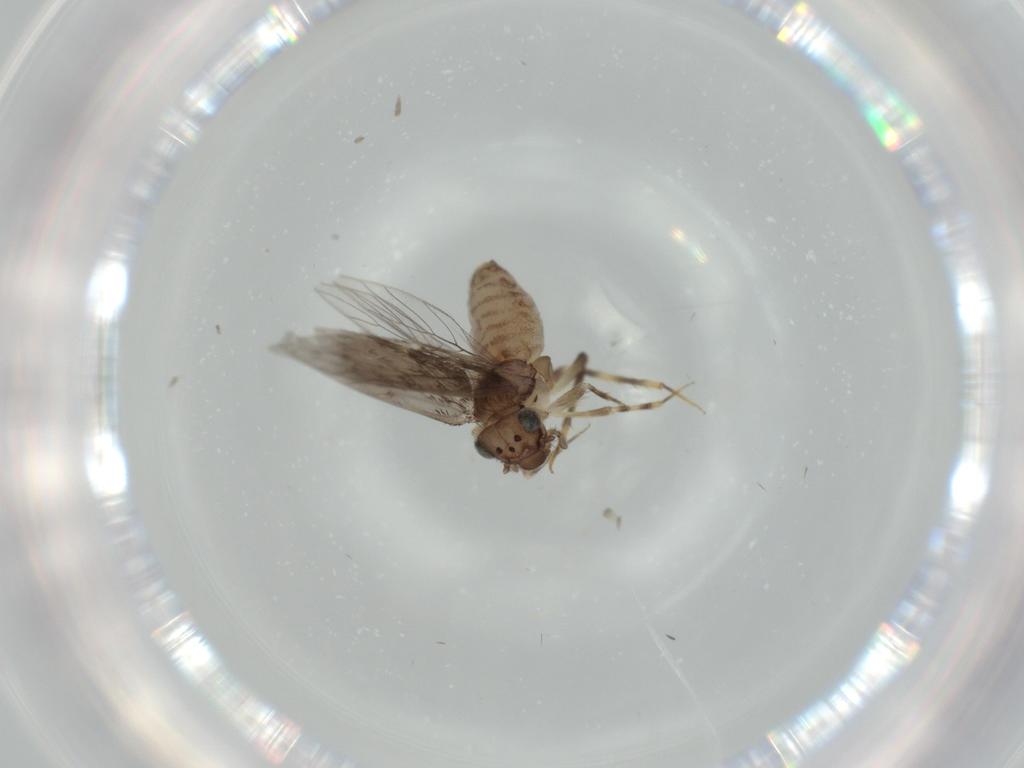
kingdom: Animalia
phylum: Arthropoda
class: Insecta
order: Psocodea
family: Lepidopsocidae
